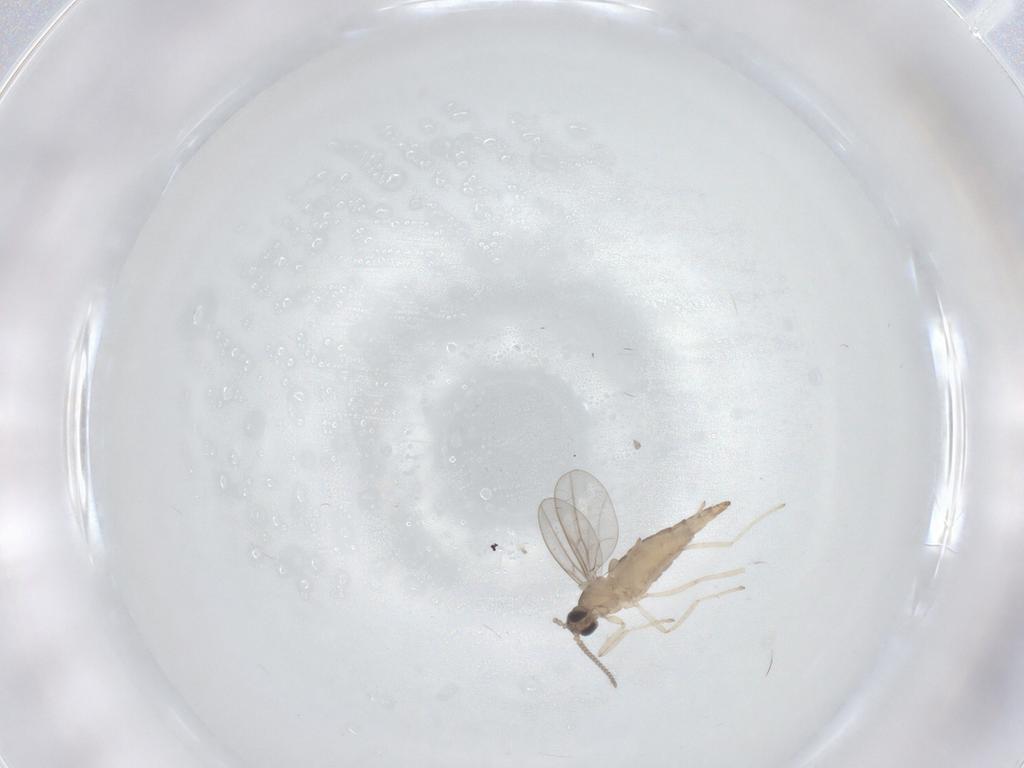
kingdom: Animalia
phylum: Arthropoda
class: Insecta
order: Diptera
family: Cecidomyiidae
